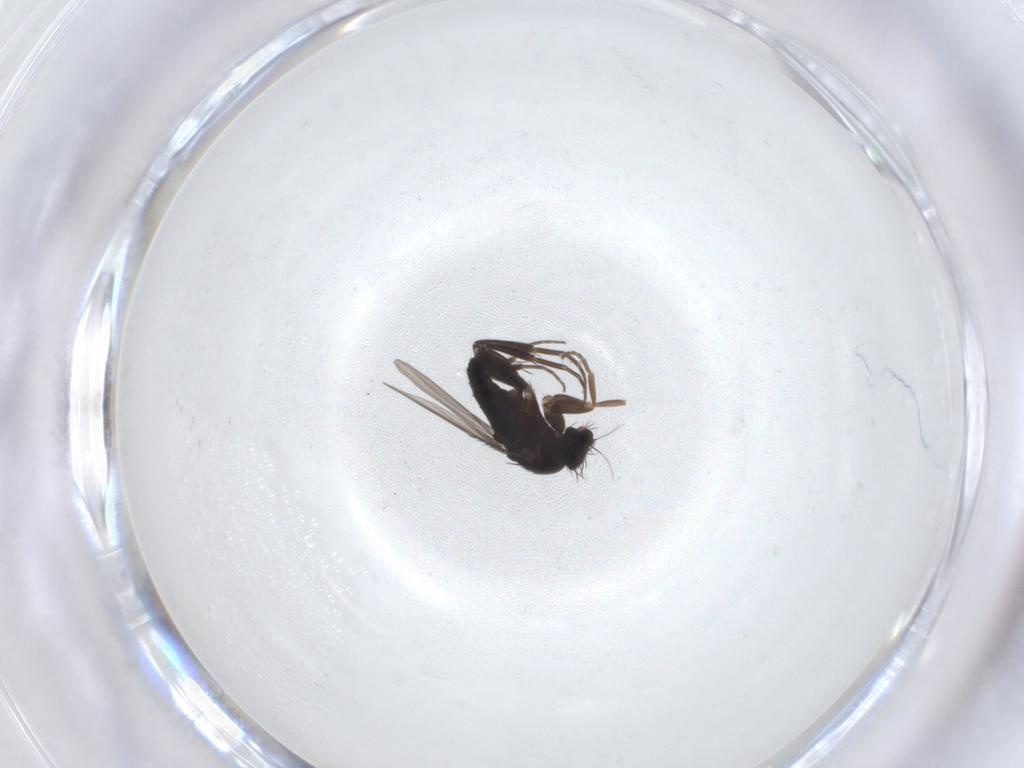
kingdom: Animalia
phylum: Arthropoda
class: Insecta
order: Diptera
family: Phoridae
